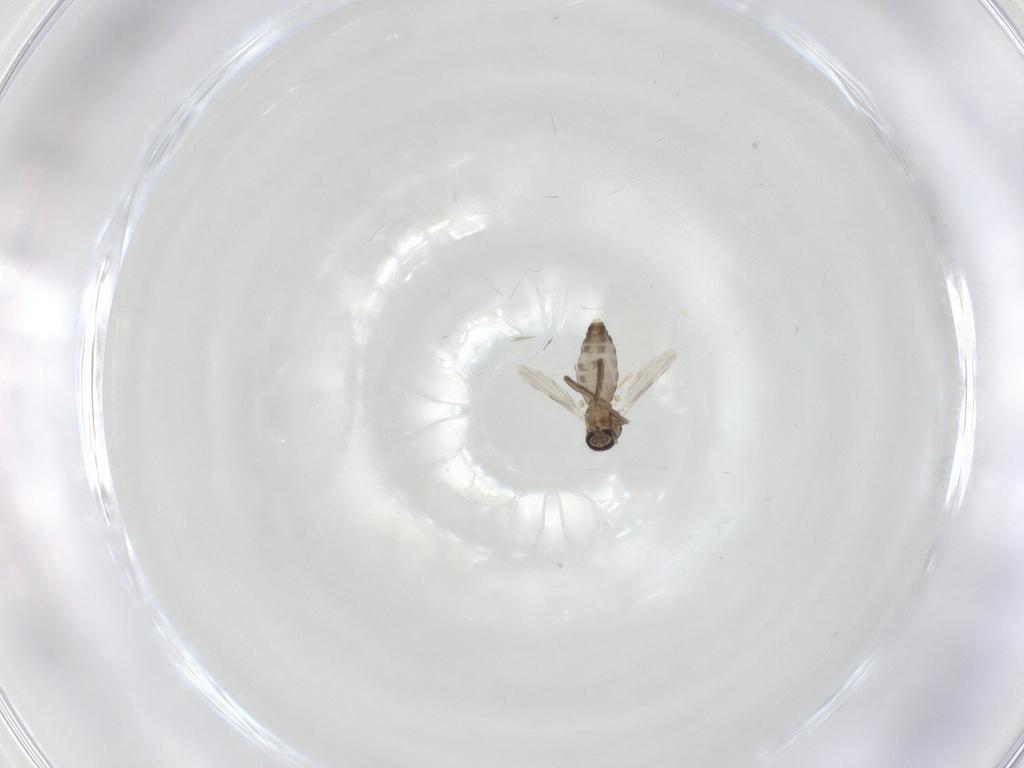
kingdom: Animalia
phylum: Arthropoda
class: Insecta
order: Diptera
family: Ceratopogonidae
